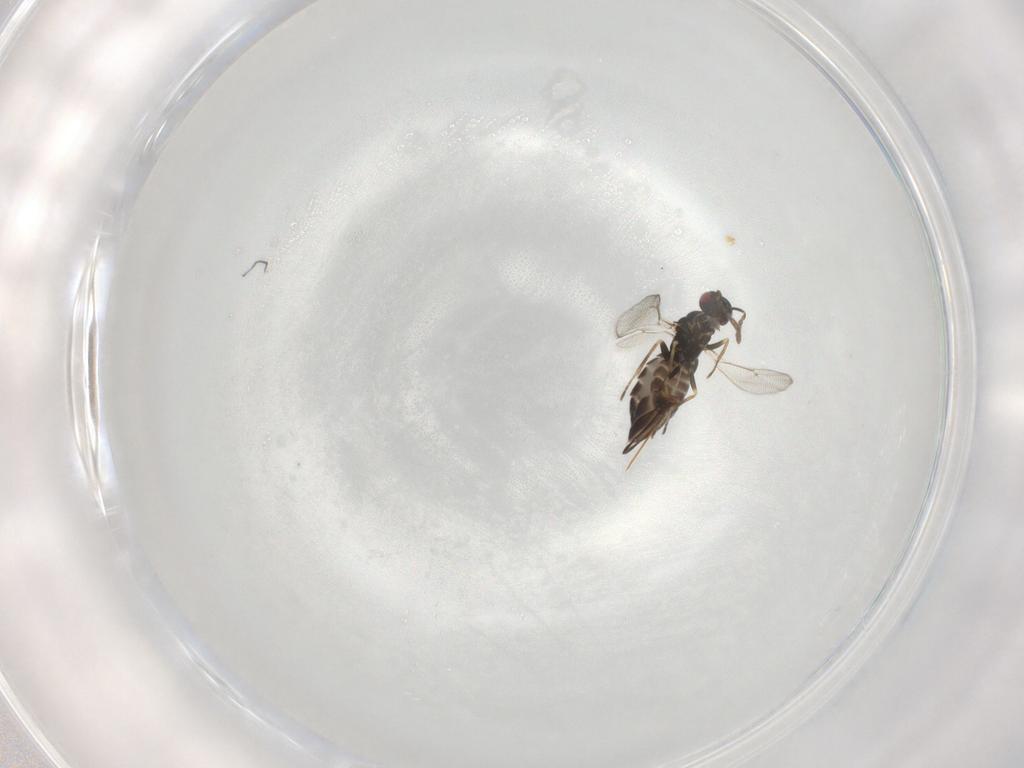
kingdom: Animalia
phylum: Arthropoda
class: Insecta
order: Hymenoptera
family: Eulophidae
